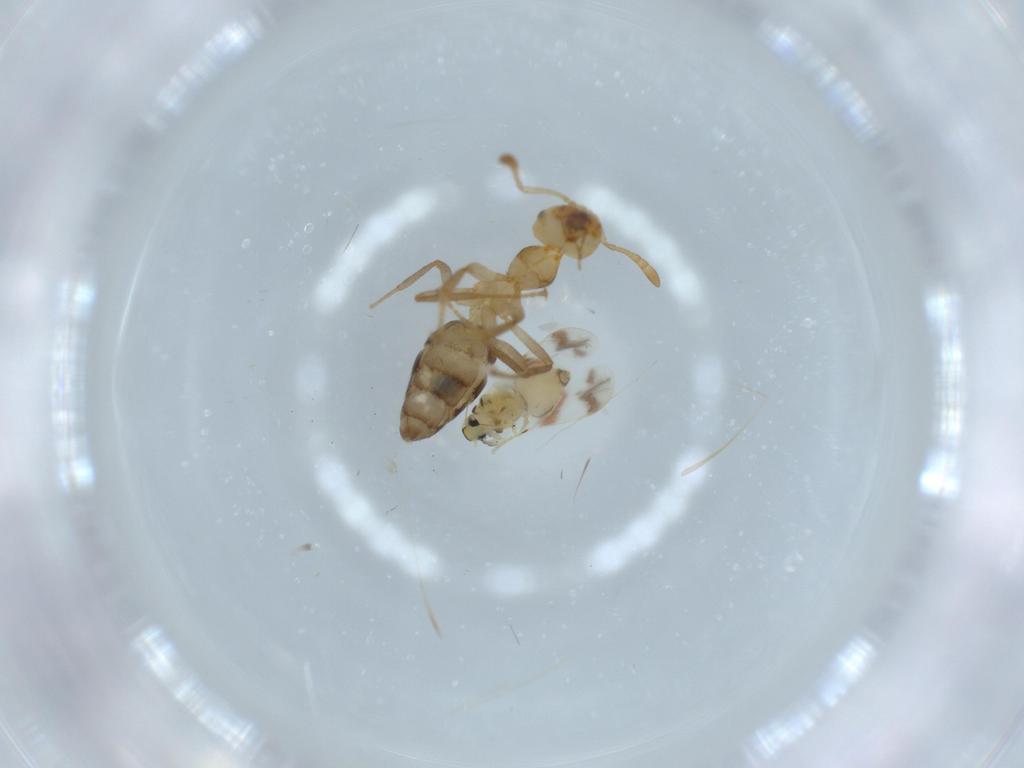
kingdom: Animalia
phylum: Arthropoda
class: Insecta
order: Hymenoptera
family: Formicidae
